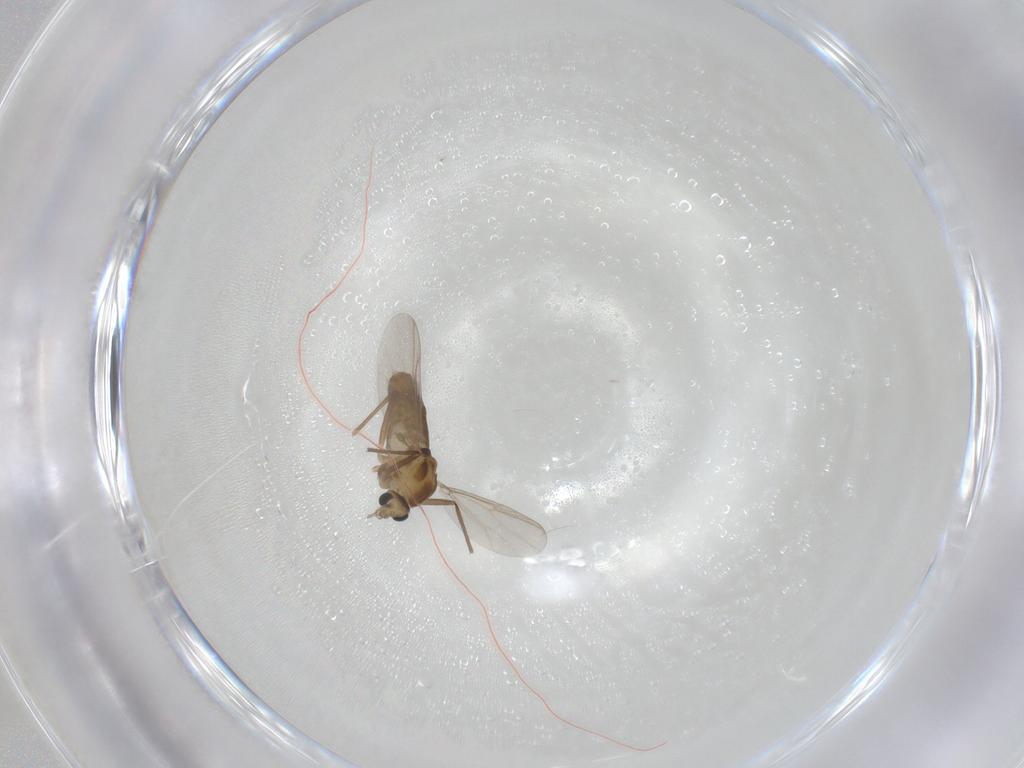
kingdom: Animalia
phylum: Arthropoda
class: Insecta
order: Diptera
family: Chironomidae
